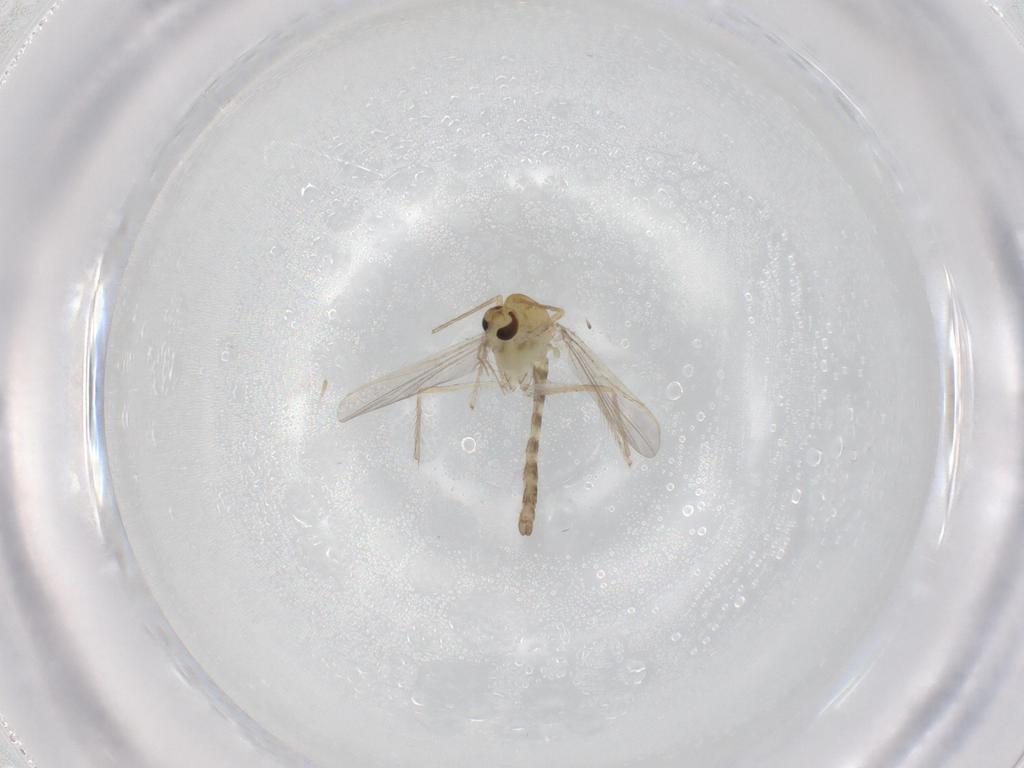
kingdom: Animalia
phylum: Arthropoda
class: Insecta
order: Diptera
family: Chironomidae
